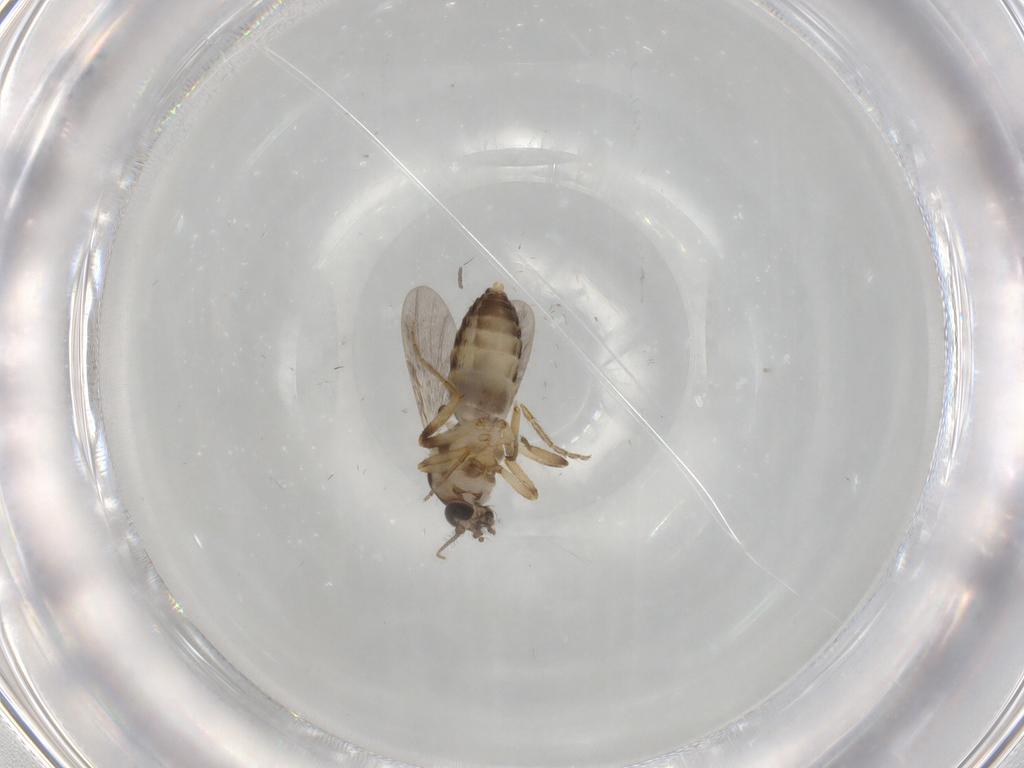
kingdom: Animalia
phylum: Arthropoda
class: Insecta
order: Diptera
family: Ceratopogonidae
